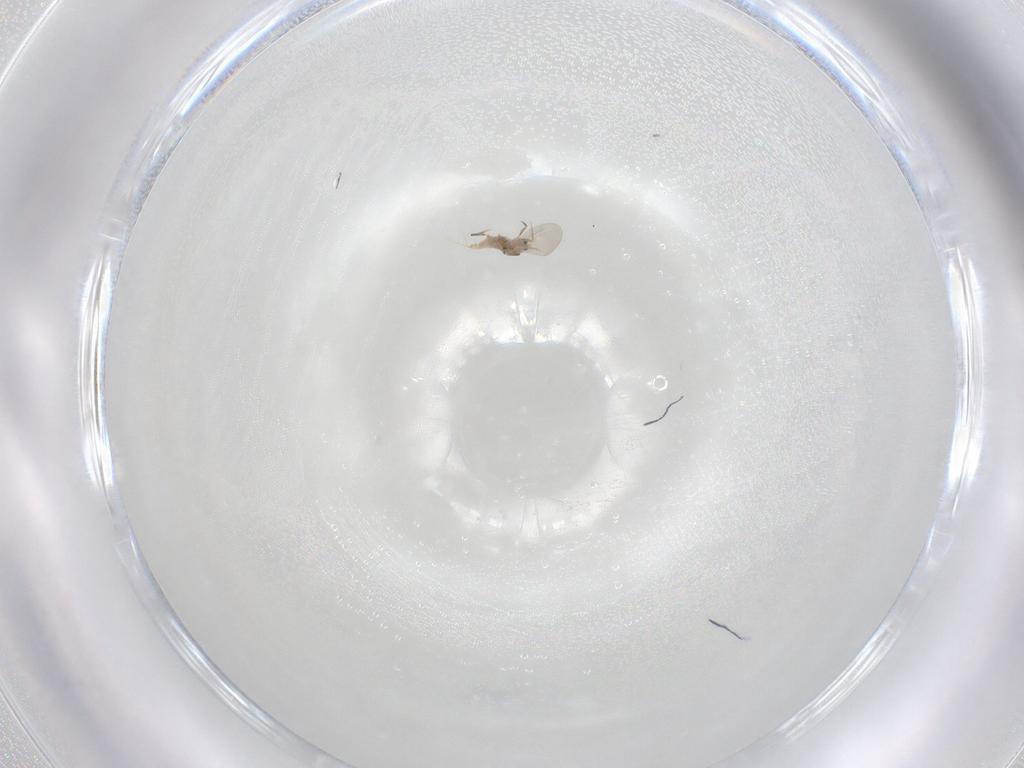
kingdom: Animalia
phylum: Arthropoda
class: Insecta
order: Hemiptera
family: Diaspididae
